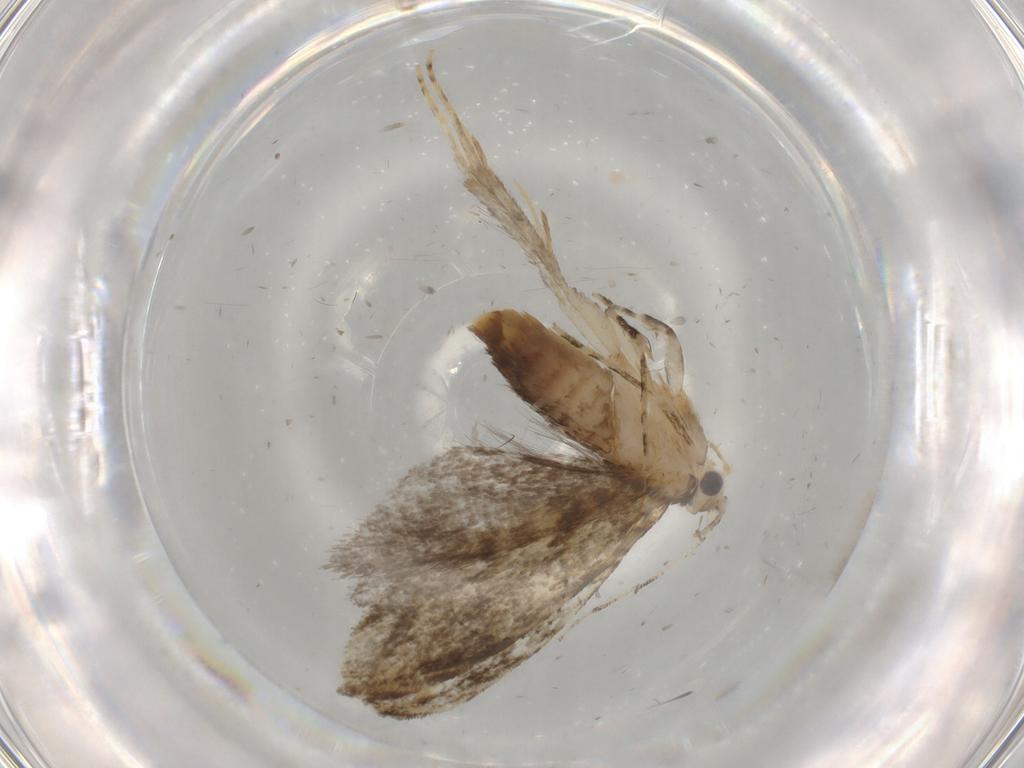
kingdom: Animalia
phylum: Arthropoda
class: Insecta
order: Lepidoptera
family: Tineidae
